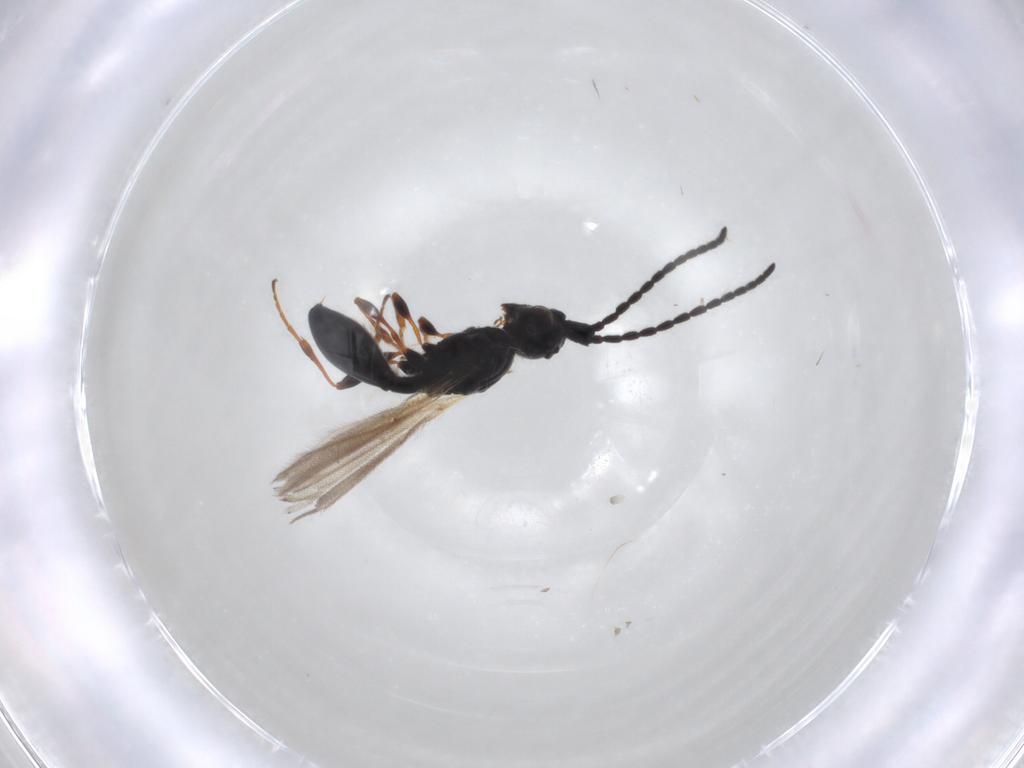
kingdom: Animalia
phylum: Arthropoda
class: Insecta
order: Hymenoptera
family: Diapriidae
